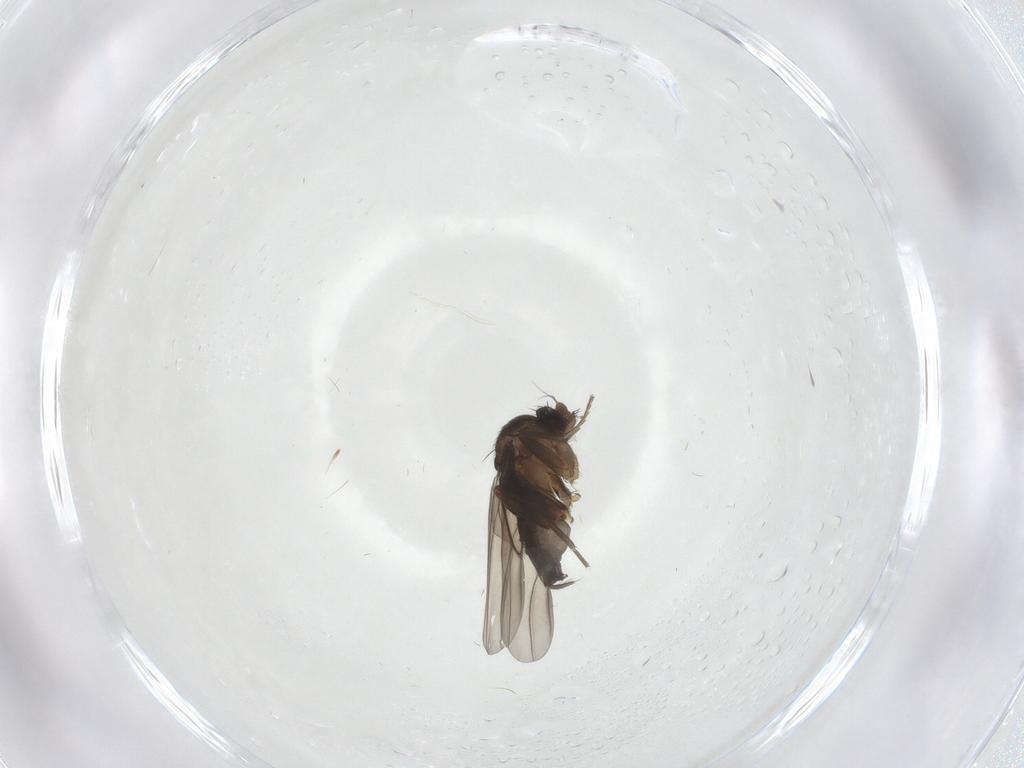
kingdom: Animalia
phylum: Arthropoda
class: Insecta
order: Diptera
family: Phoridae
